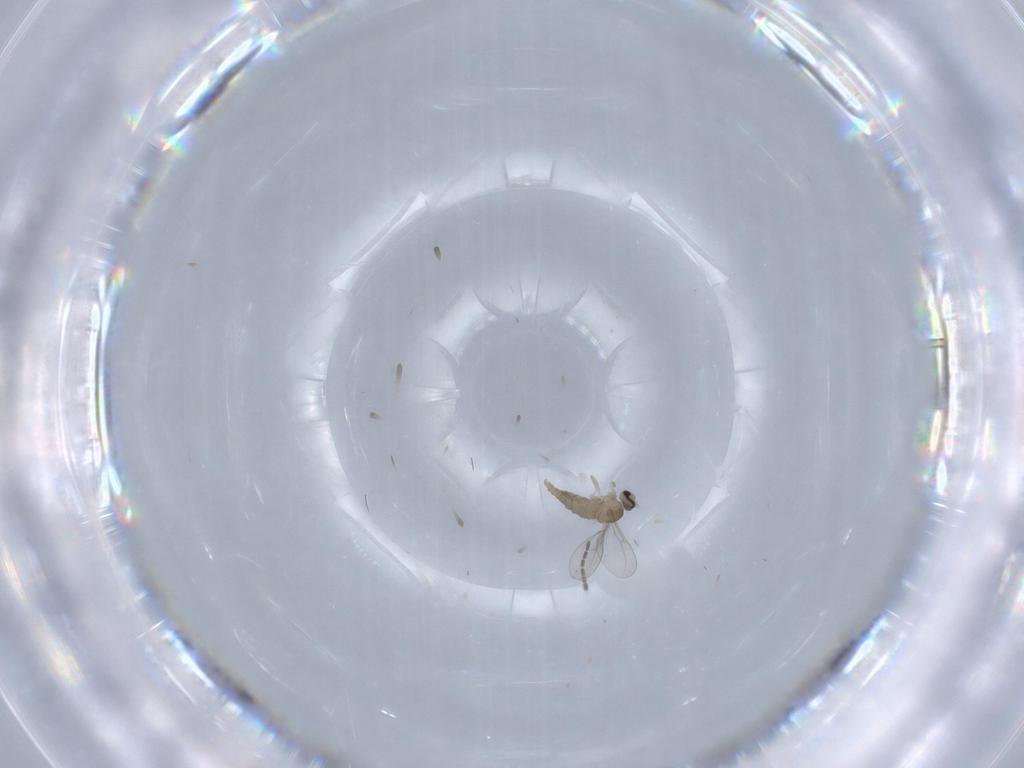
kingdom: Animalia
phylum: Arthropoda
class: Insecta
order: Diptera
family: Cecidomyiidae
